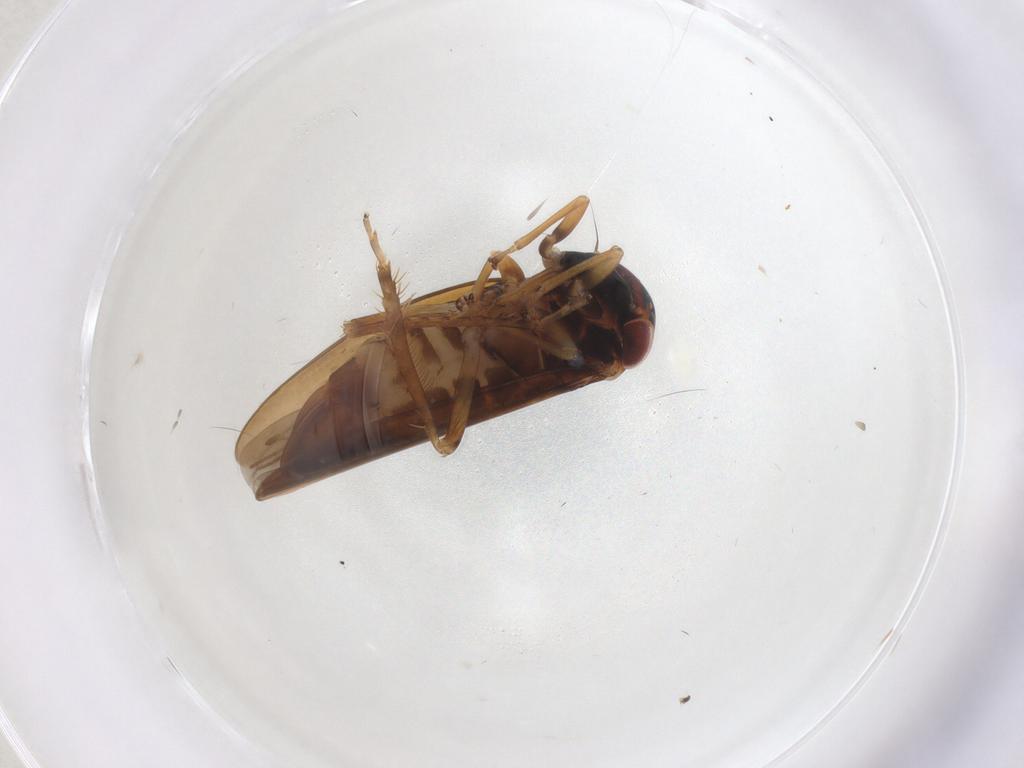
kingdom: Animalia
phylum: Arthropoda
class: Insecta
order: Hemiptera
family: Cicadellidae
